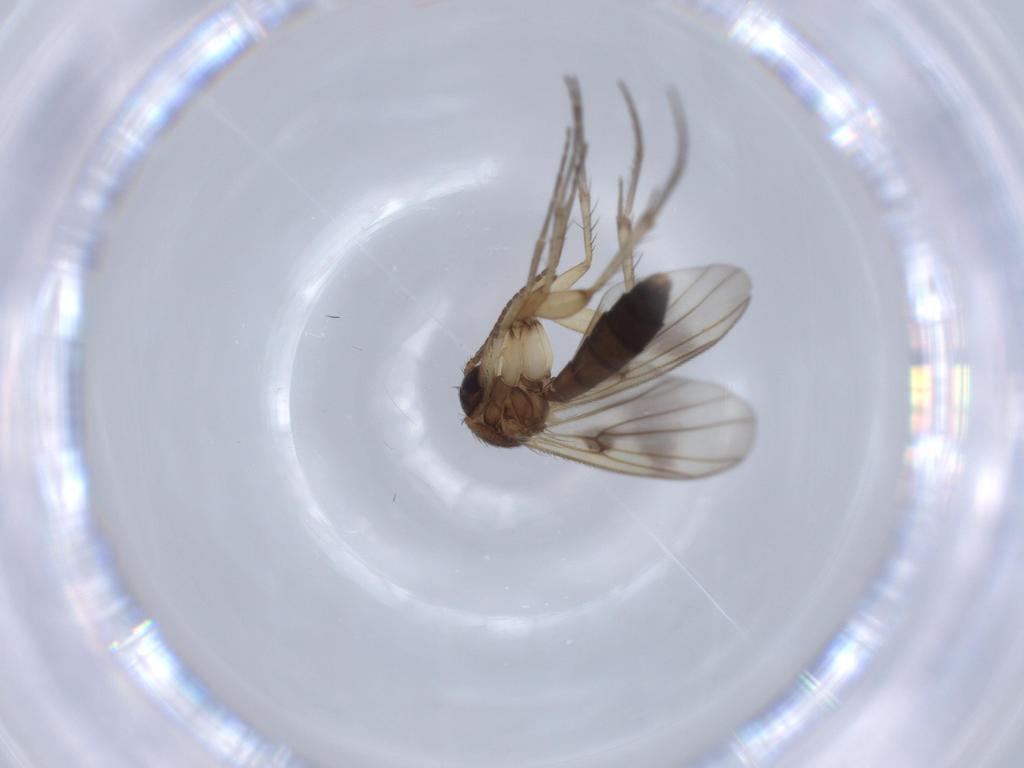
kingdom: Animalia
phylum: Arthropoda
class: Insecta
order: Diptera
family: Mycetophilidae
